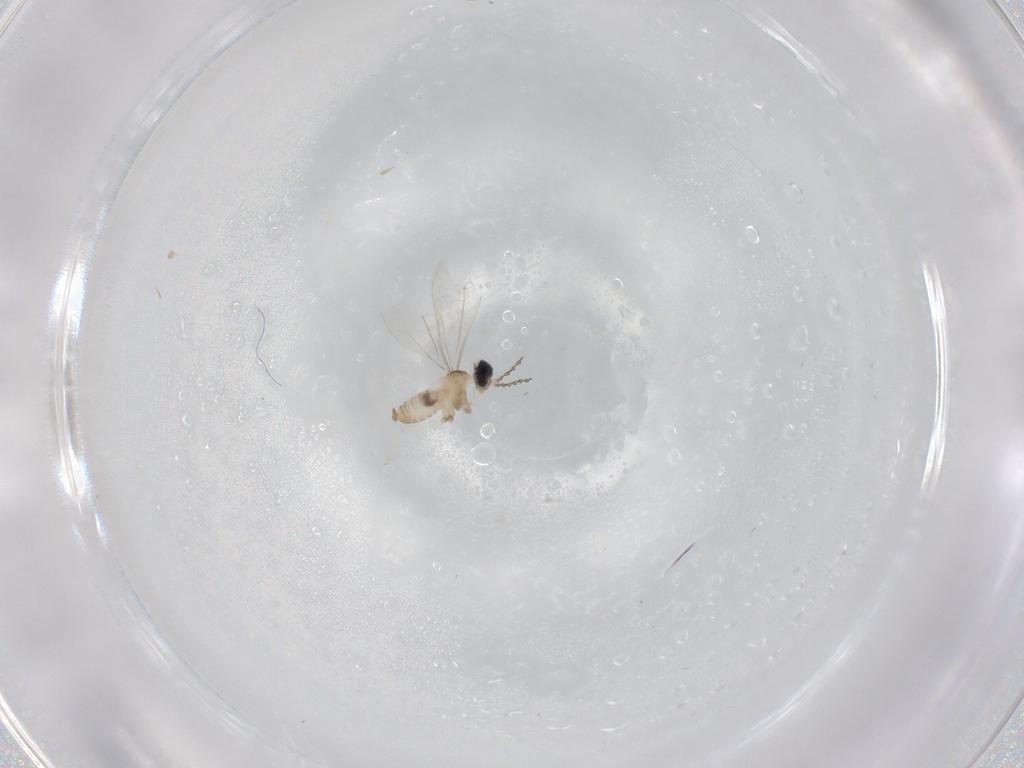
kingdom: Animalia
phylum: Arthropoda
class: Insecta
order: Diptera
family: Cecidomyiidae
